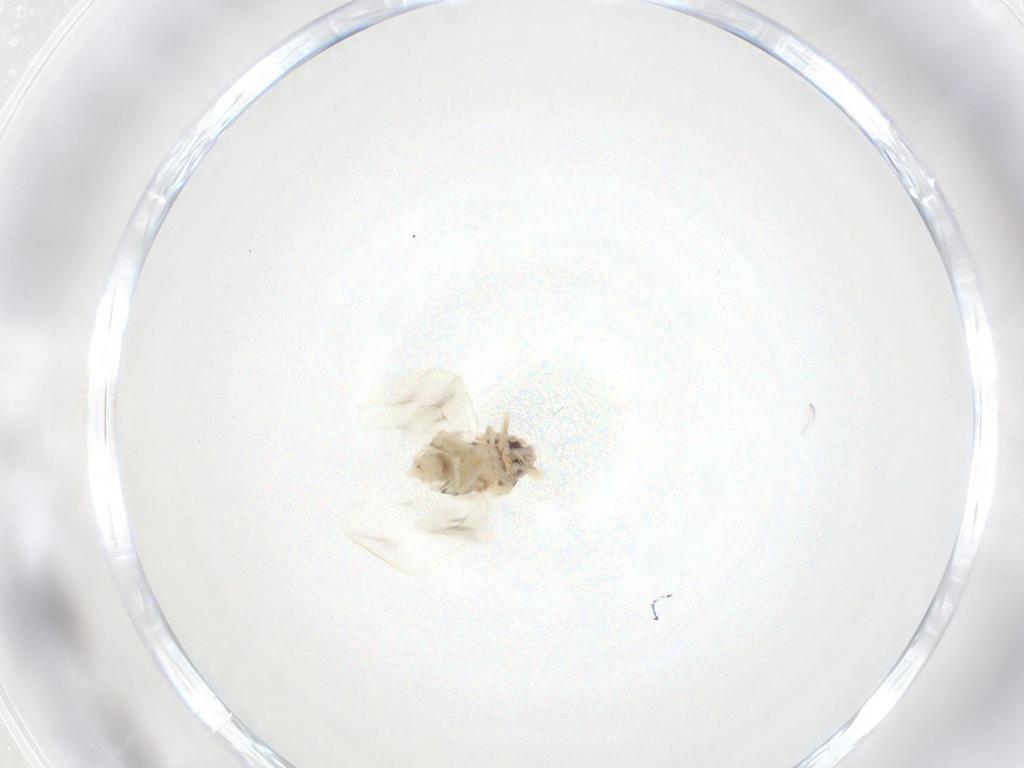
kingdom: Animalia
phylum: Arthropoda
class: Insecta
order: Hemiptera
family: Aleyrodidae
